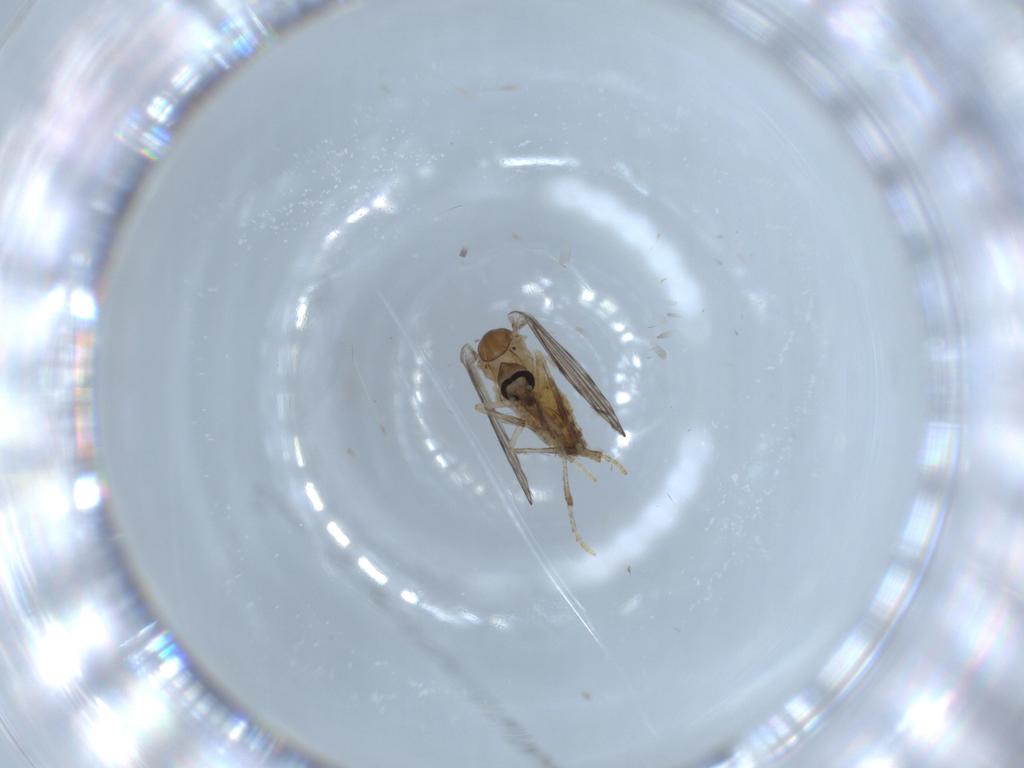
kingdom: Animalia
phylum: Arthropoda
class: Insecta
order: Diptera
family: Psychodidae
